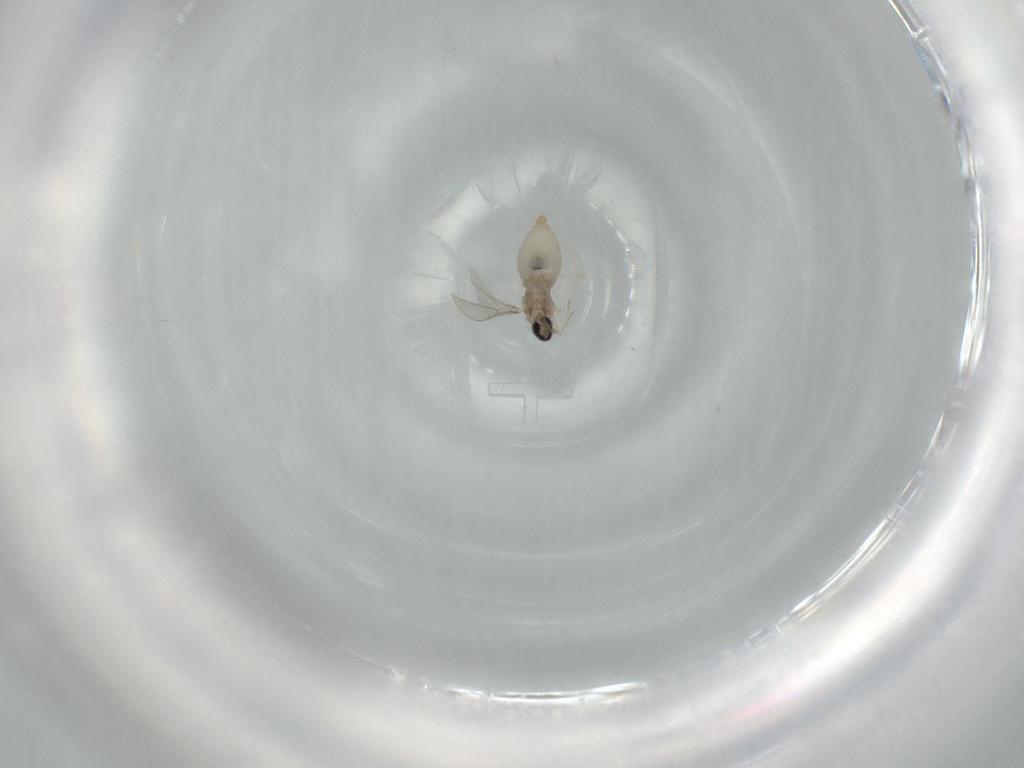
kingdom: Animalia
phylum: Arthropoda
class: Insecta
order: Diptera
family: Cecidomyiidae
